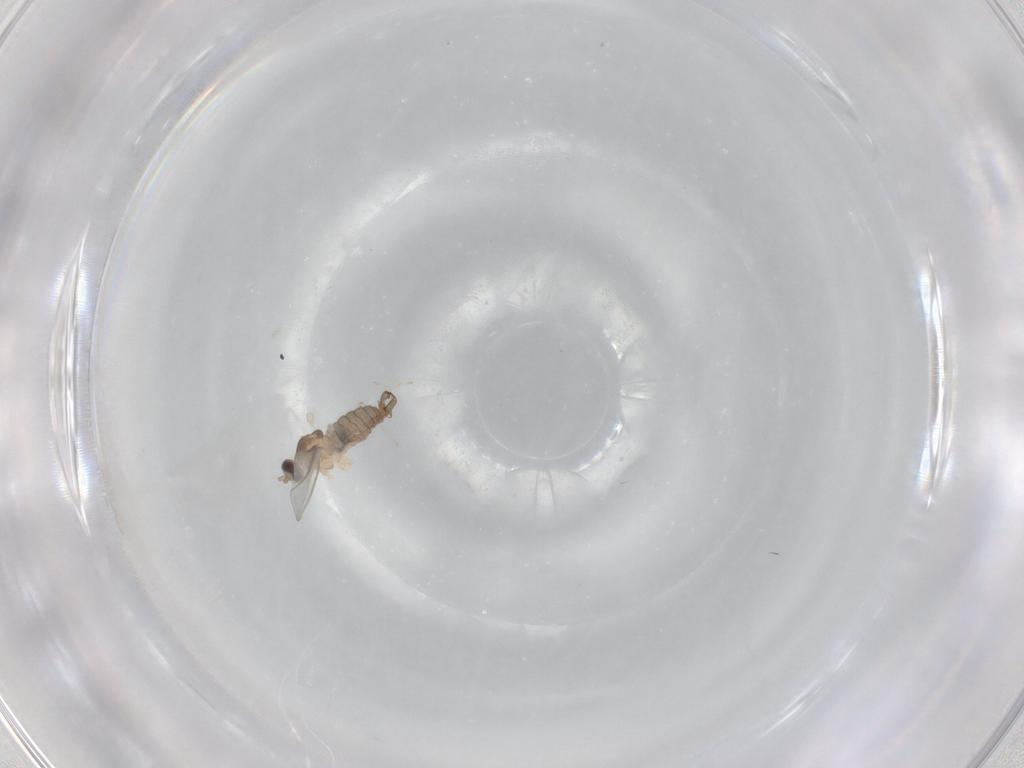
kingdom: Animalia
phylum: Arthropoda
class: Insecta
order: Diptera
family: Cecidomyiidae
